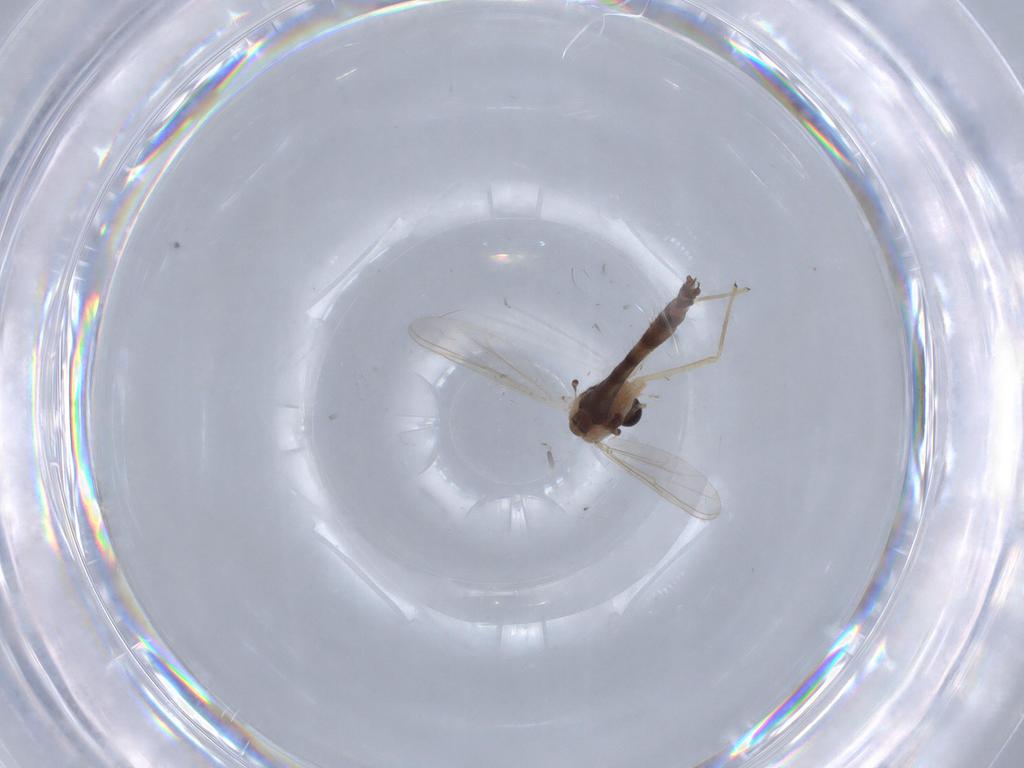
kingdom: Animalia
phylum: Arthropoda
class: Insecta
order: Diptera
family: Chironomidae
